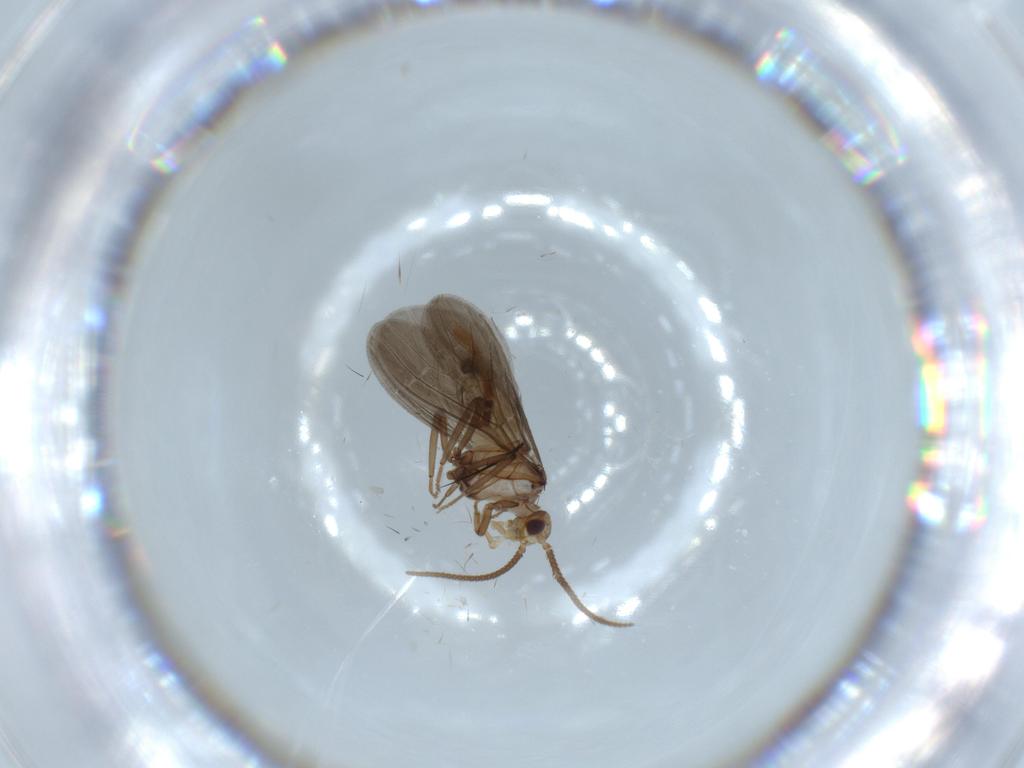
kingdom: Animalia
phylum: Arthropoda
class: Insecta
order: Neuroptera
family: Coniopterygidae
